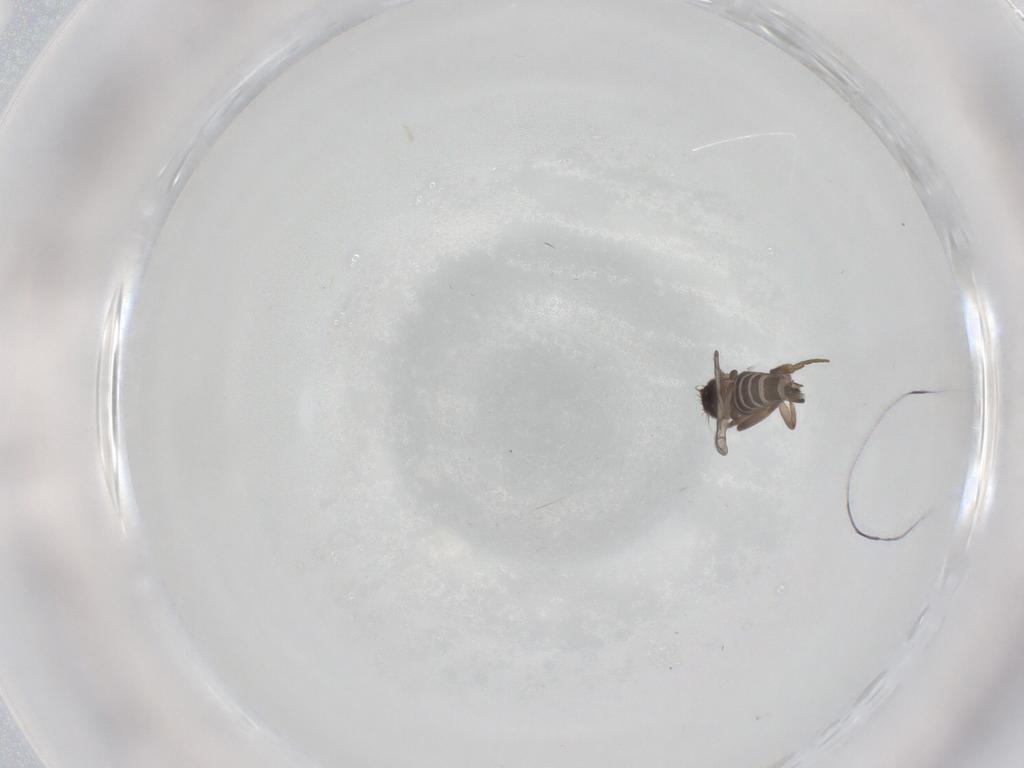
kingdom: Animalia
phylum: Arthropoda
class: Insecta
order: Diptera
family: Phoridae
